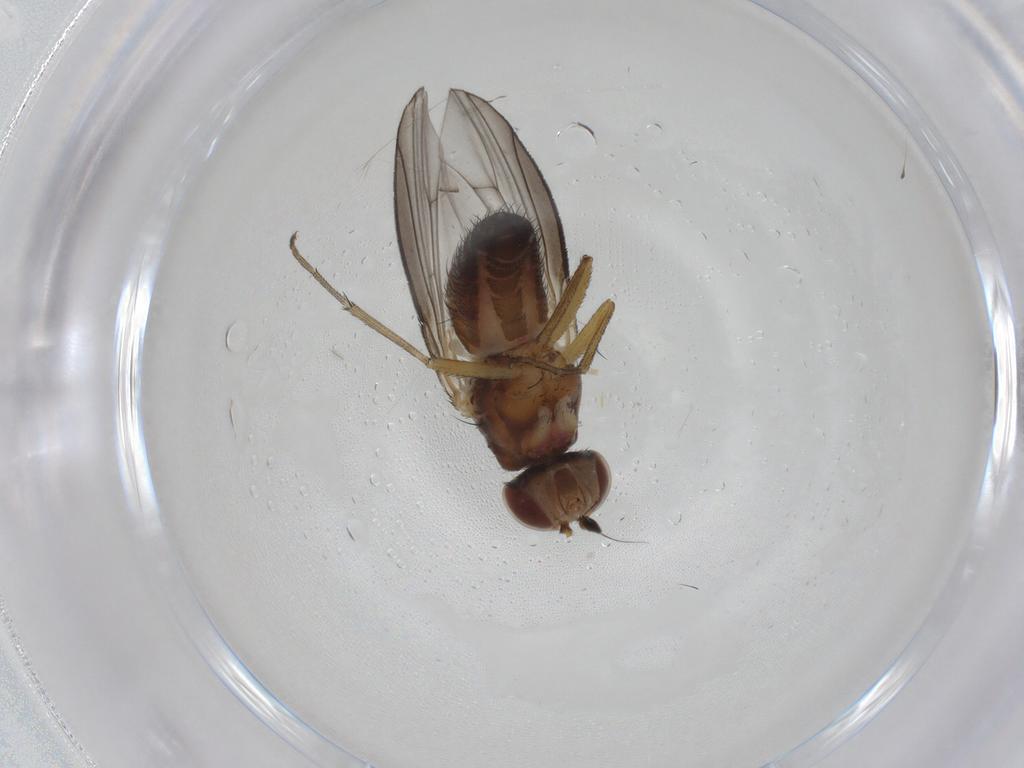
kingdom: Animalia
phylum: Arthropoda
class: Insecta
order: Diptera
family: Heleomyzidae
